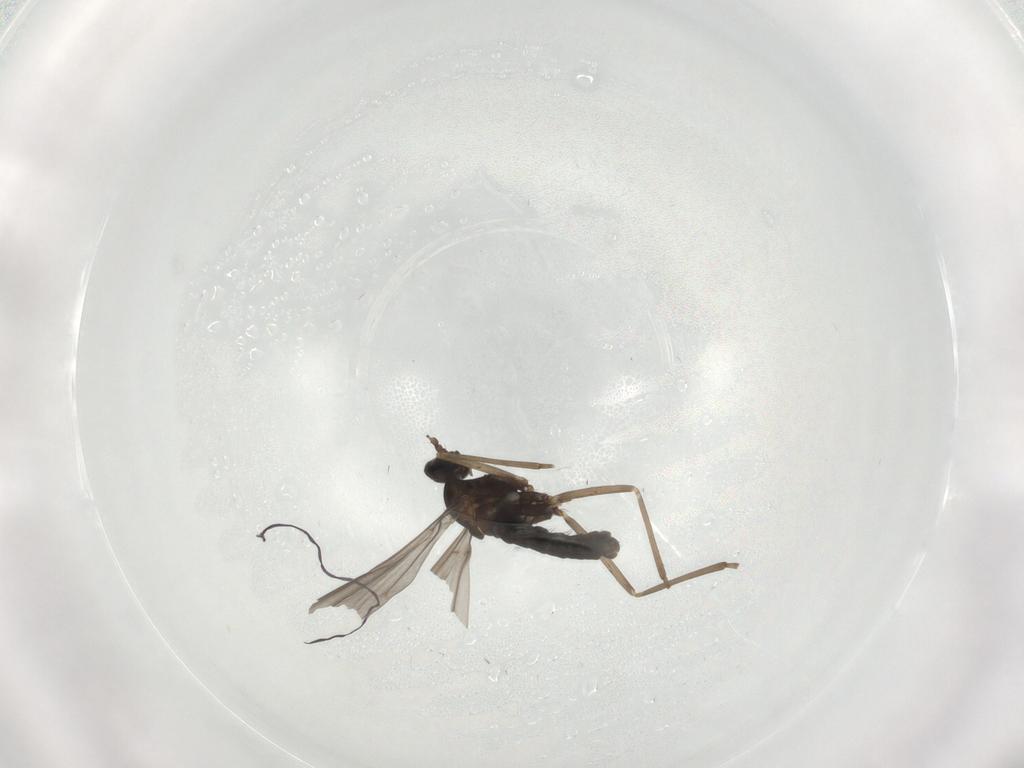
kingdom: Animalia
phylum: Arthropoda
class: Insecta
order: Diptera
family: Cecidomyiidae
